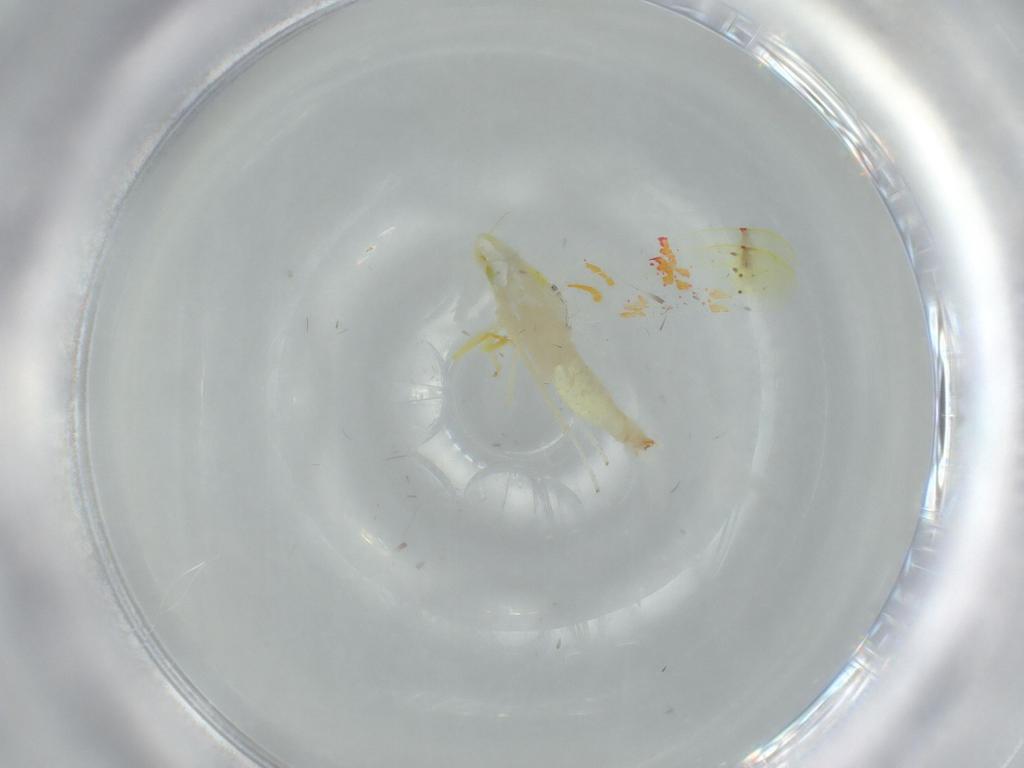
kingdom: Animalia
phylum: Arthropoda
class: Insecta
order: Hemiptera
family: Cicadellidae
